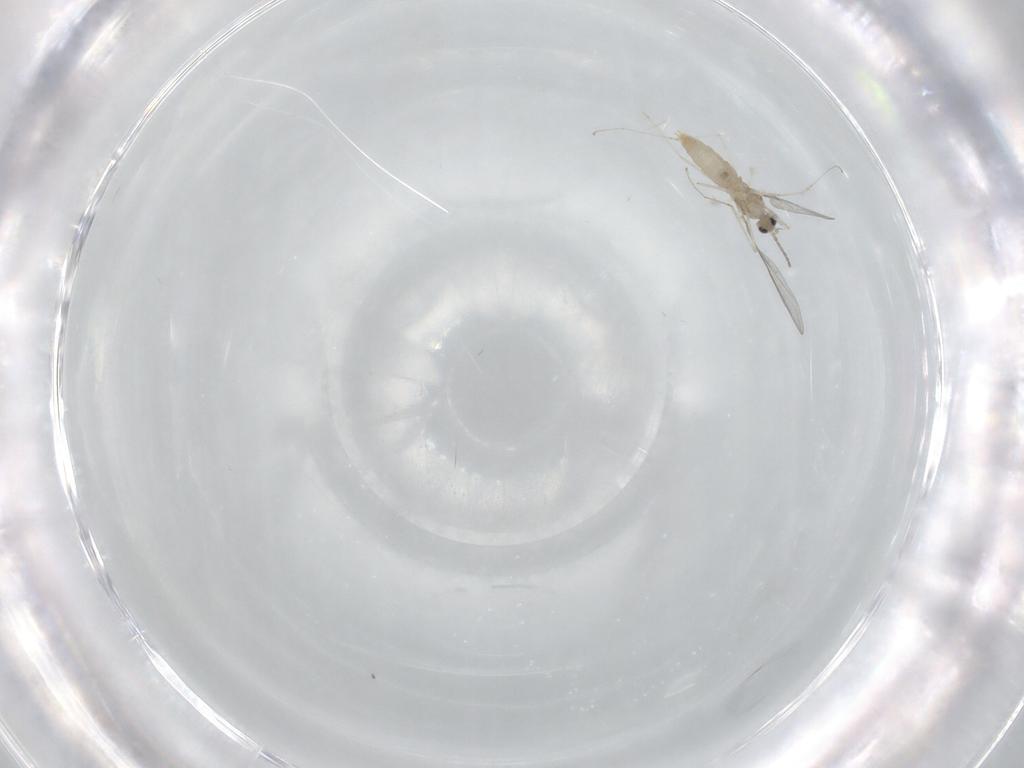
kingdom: Animalia
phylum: Arthropoda
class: Insecta
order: Diptera
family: Cecidomyiidae
